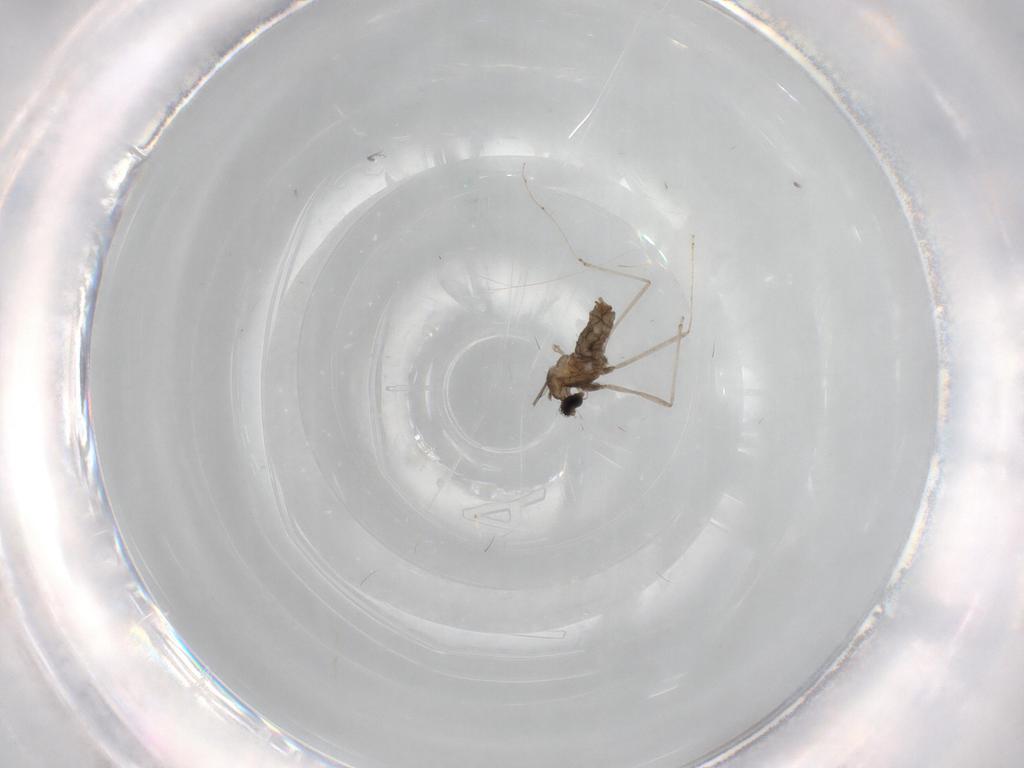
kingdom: Animalia
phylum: Arthropoda
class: Insecta
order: Diptera
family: Cecidomyiidae
